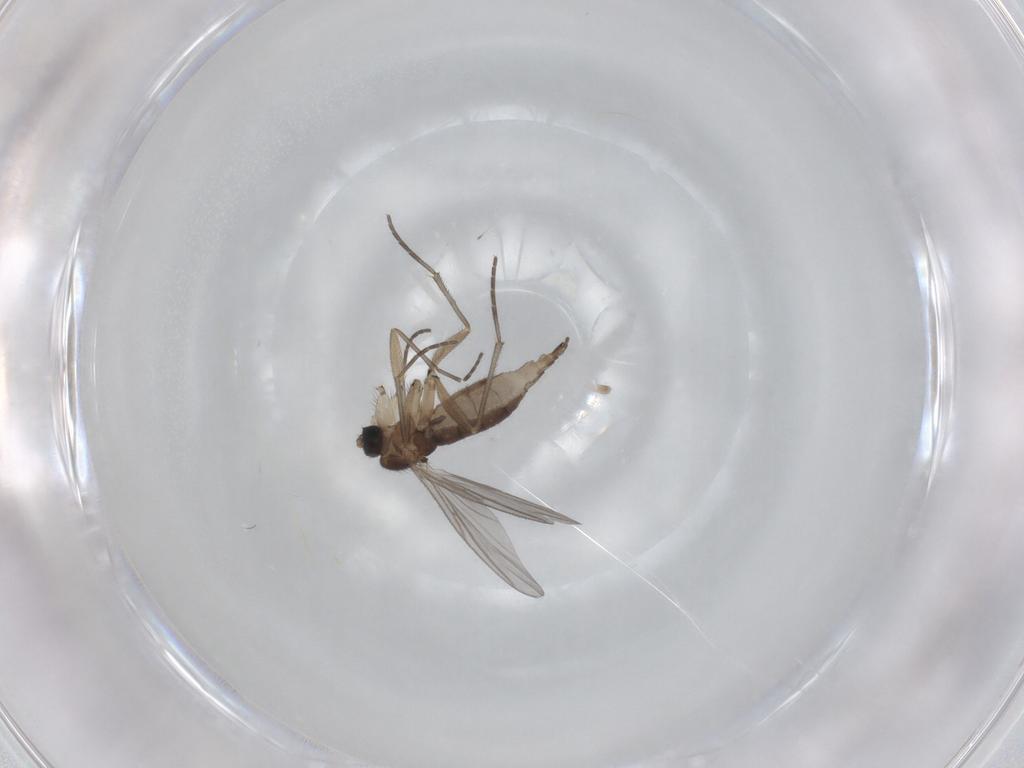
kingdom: Animalia
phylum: Arthropoda
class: Insecta
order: Diptera
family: Sciaridae
